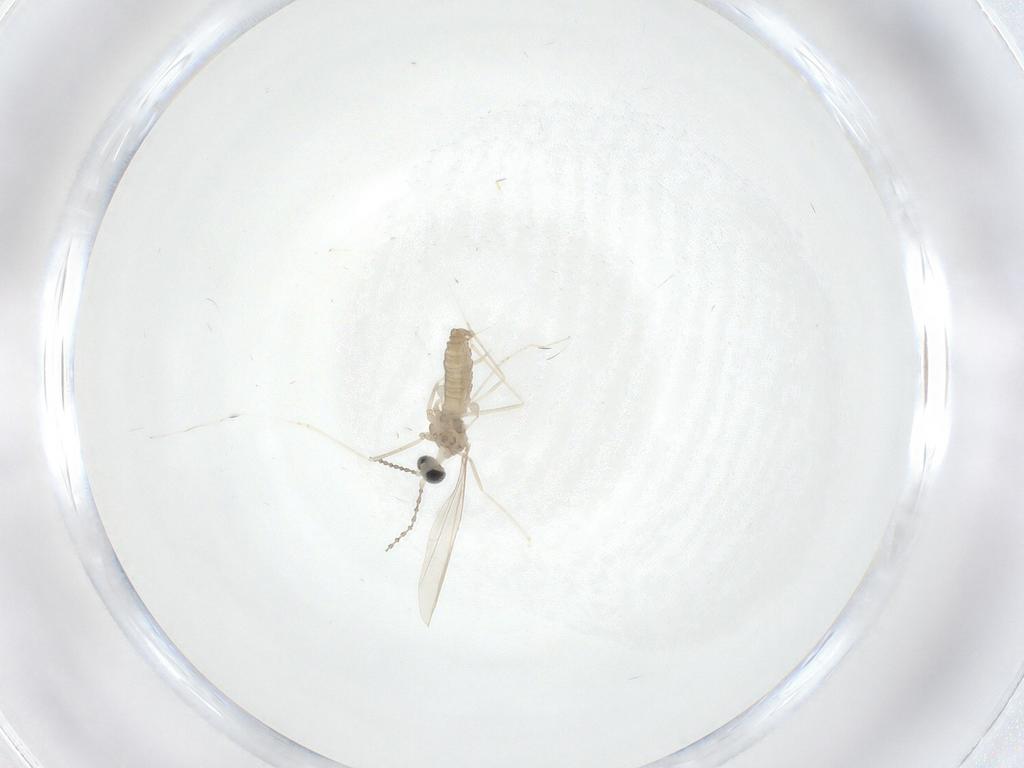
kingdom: Animalia
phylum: Arthropoda
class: Insecta
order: Diptera
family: Cecidomyiidae
